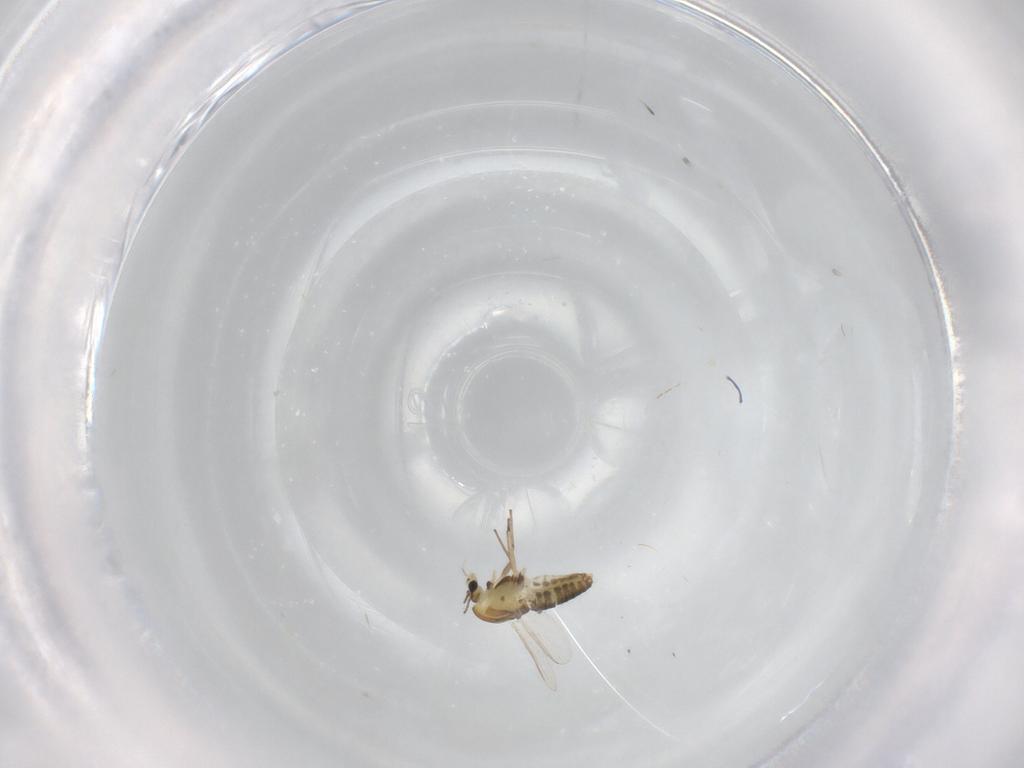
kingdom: Animalia
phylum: Arthropoda
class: Insecta
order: Diptera
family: Chironomidae
